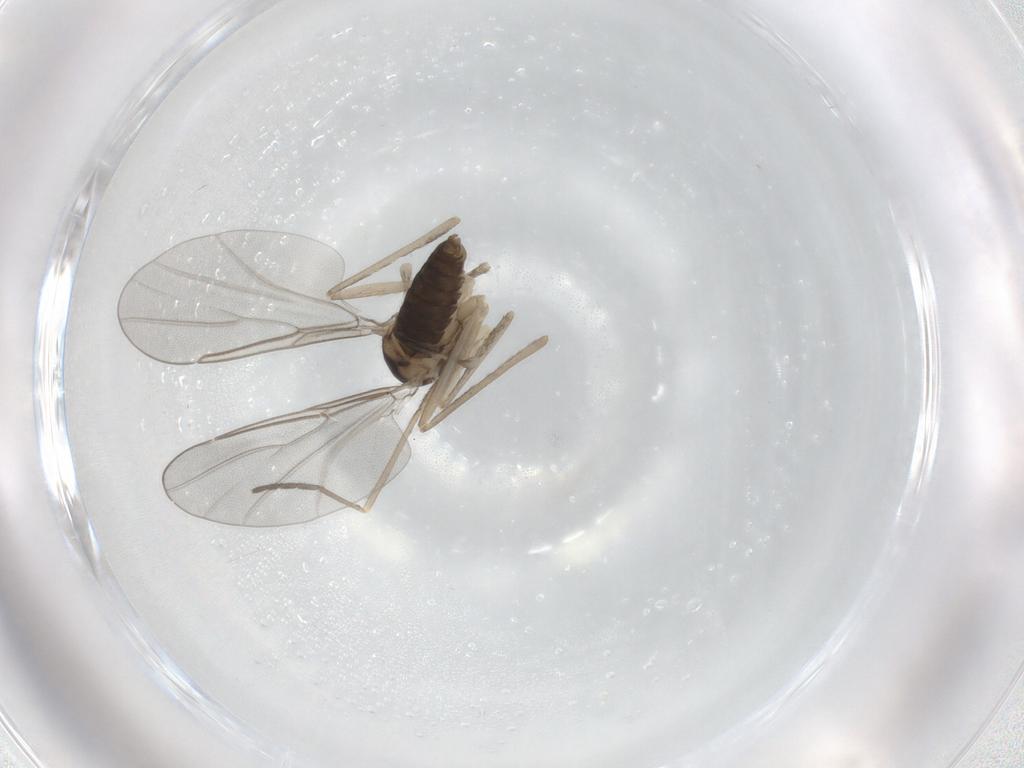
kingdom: Animalia
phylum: Arthropoda
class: Insecta
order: Diptera
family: Cecidomyiidae
